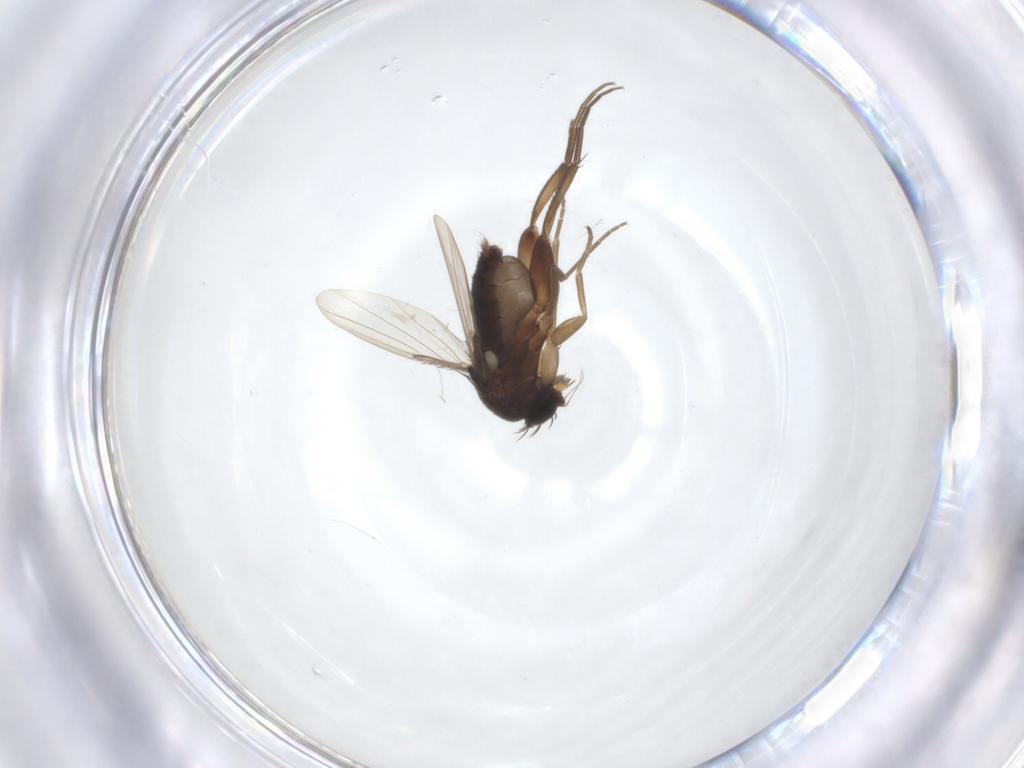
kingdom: Animalia
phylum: Arthropoda
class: Insecta
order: Diptera
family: Phoridae
